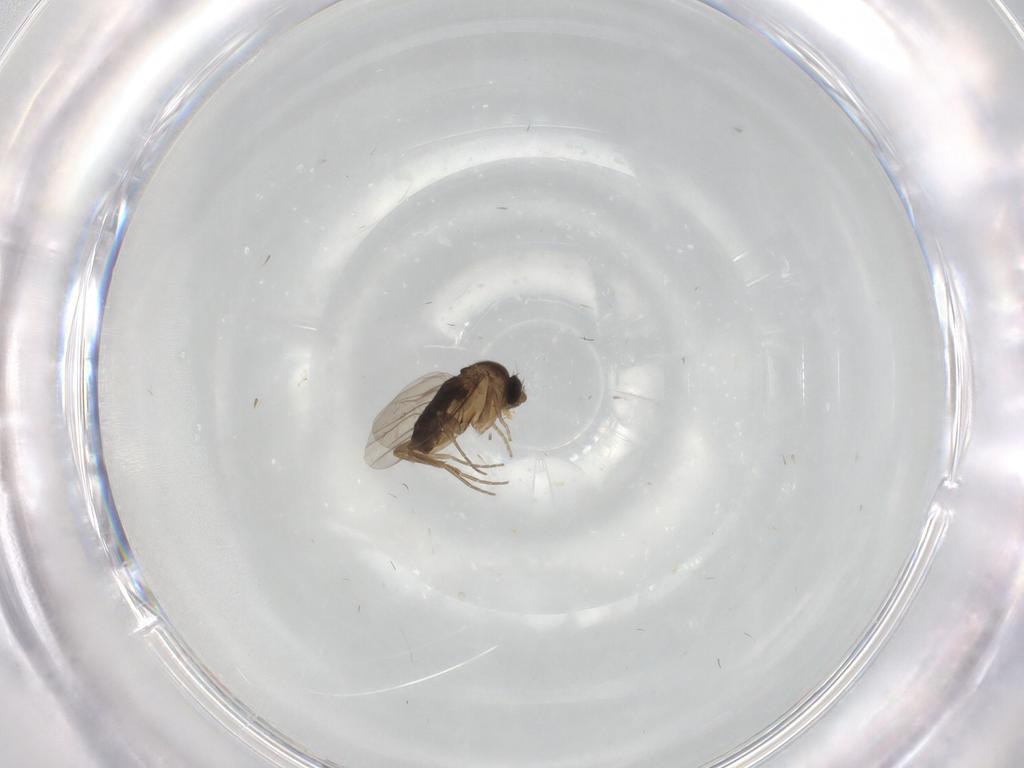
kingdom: Animalia
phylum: Arthropoda
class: Insecta
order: Diptera
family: Phoridae
